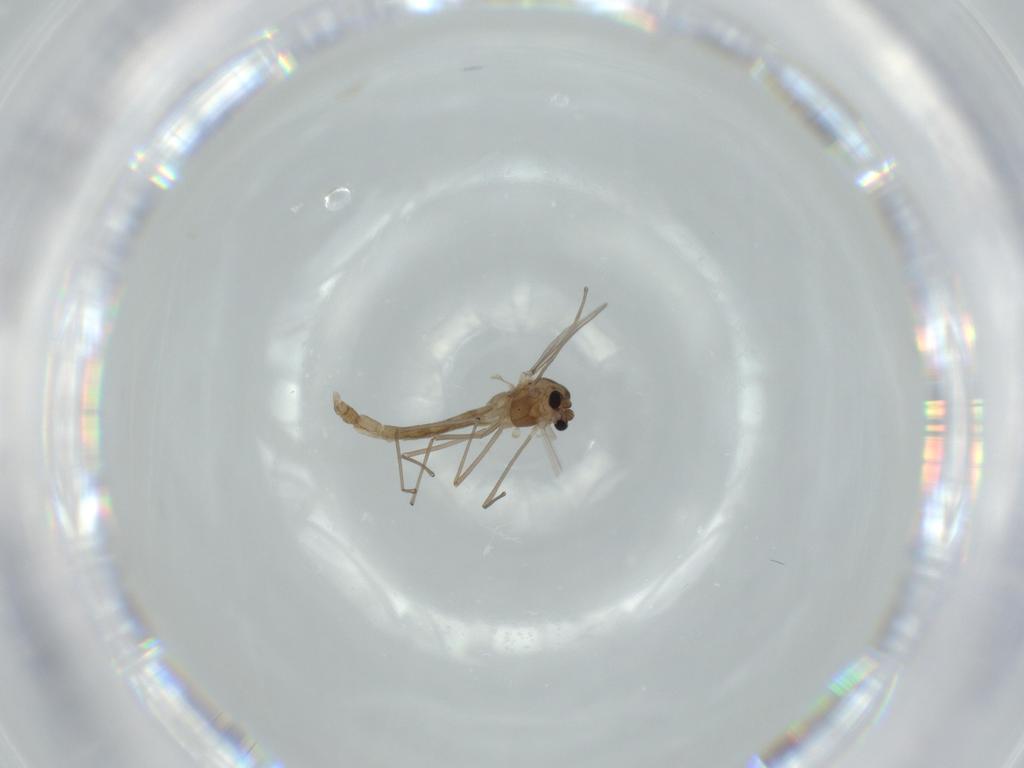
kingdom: Animalia
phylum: Arthropoda
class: Insecta
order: Diptera
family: Chironomidae
